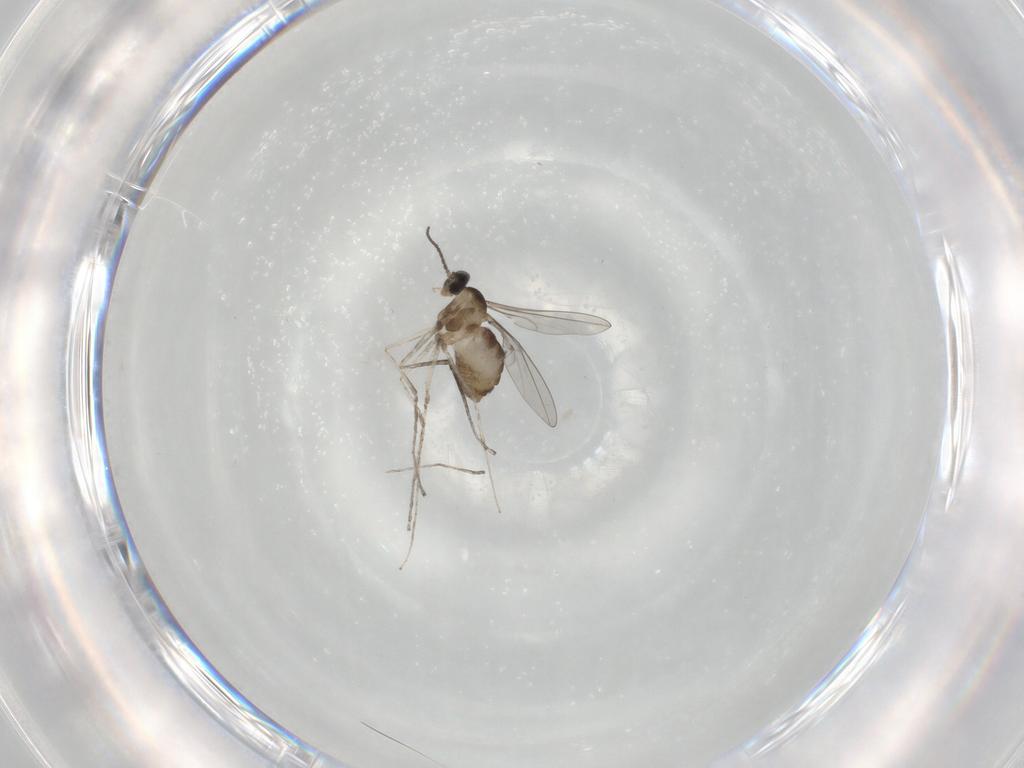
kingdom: Animalia
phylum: Arthropoda
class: Insecta
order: Diptera
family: Cecidomyiidae
